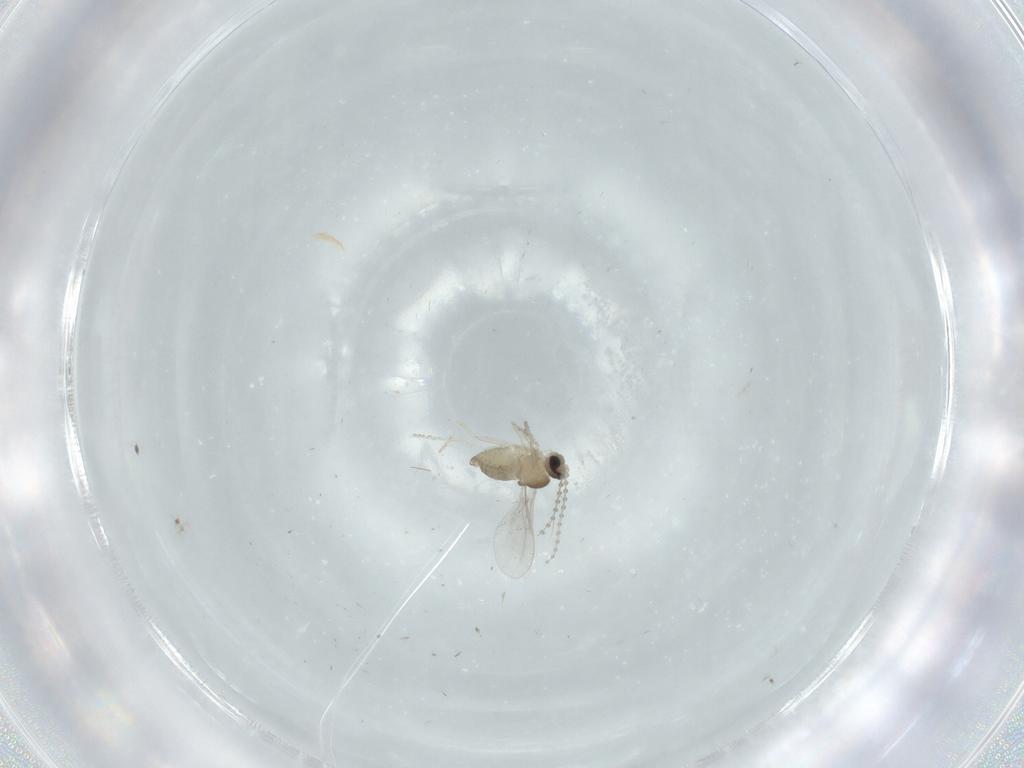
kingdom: Animalia
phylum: Arthropoda
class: Insecta
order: Diptera
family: Cecidomyiidae
